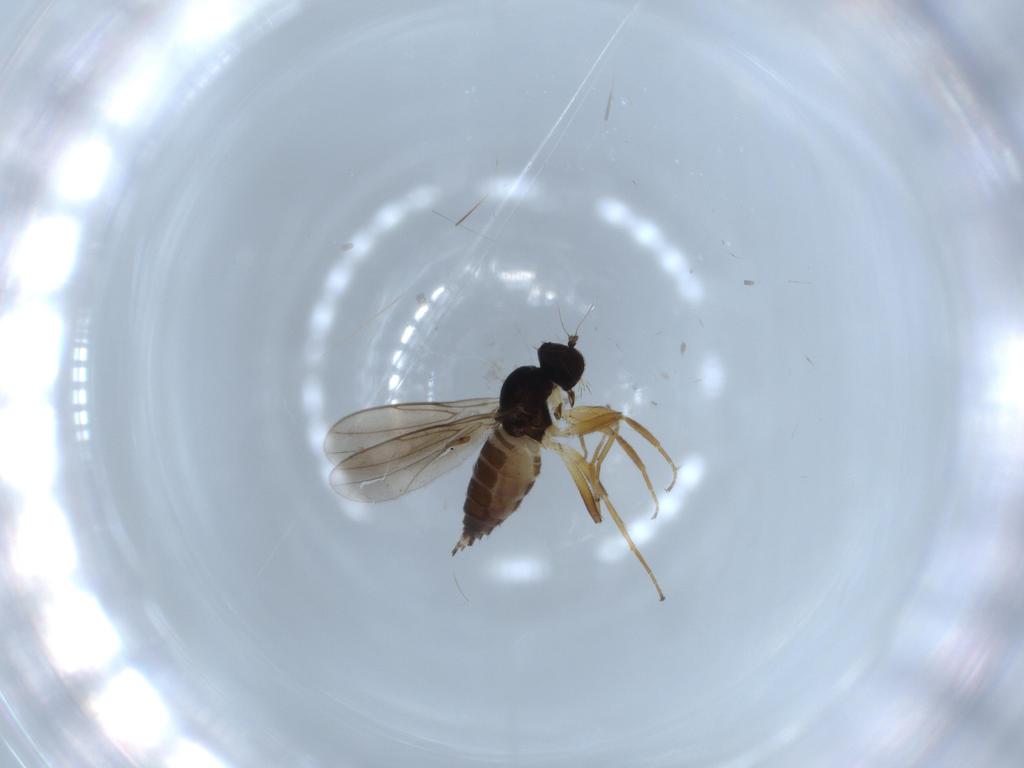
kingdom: Animalia
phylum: Arthropoda
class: Insecta
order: Diptera
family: Hybotidae
